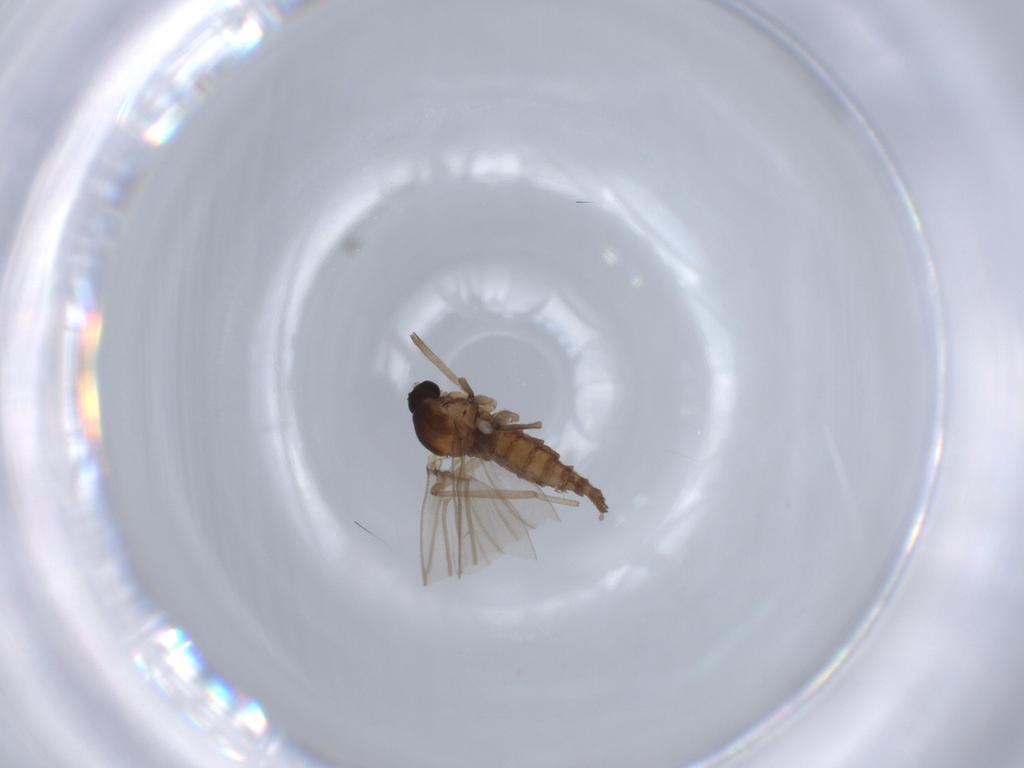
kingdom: Animalia
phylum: Arthropoda
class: Insecta
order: Diptera
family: Cecidomyiidae
